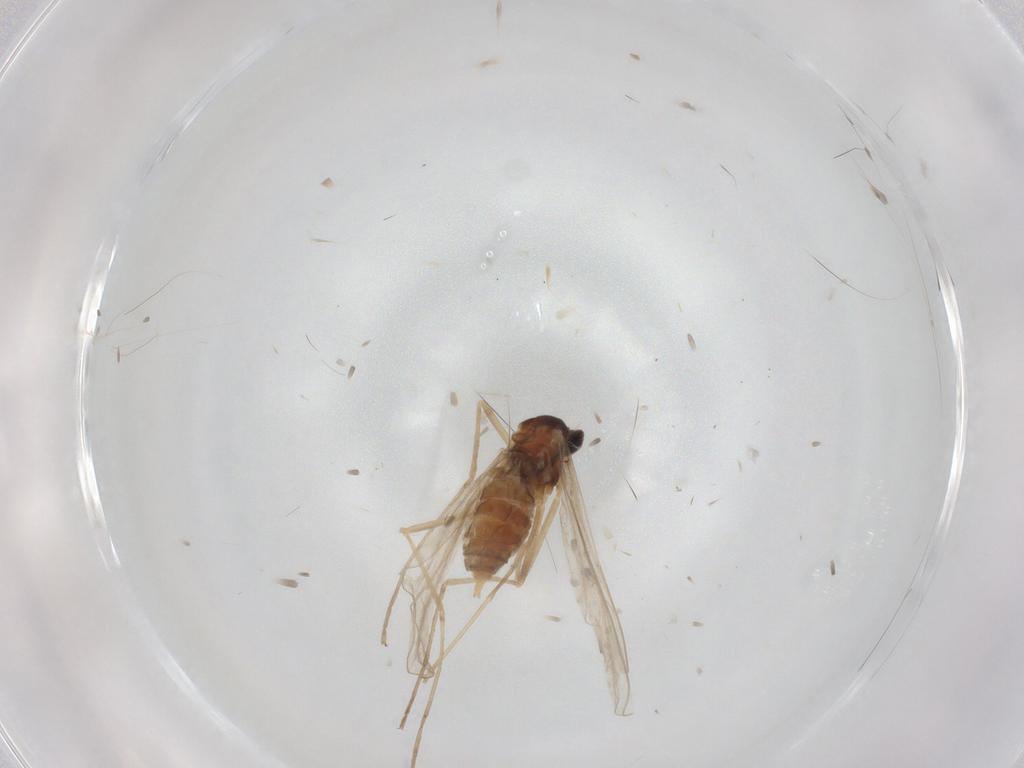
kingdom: Animalia
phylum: Arthropoda
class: Insecta
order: Diptera
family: Cecidomyiidae
